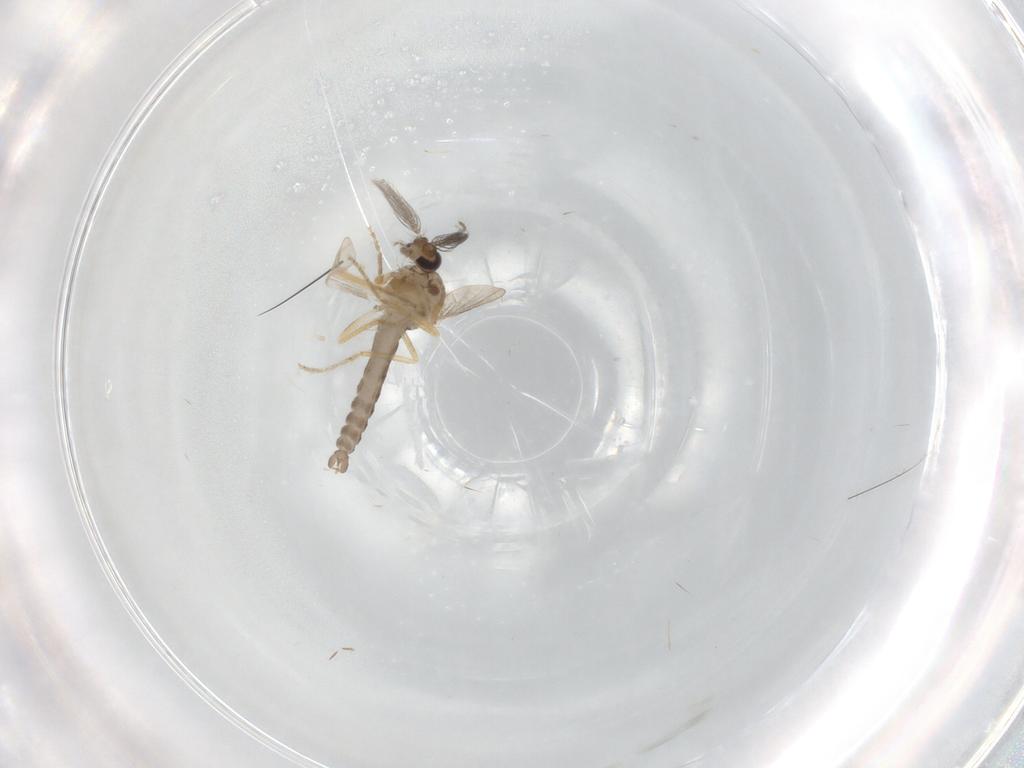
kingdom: Animalia
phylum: Arthropoda
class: Insecta
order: Diptera
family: Ceratopogonidae
